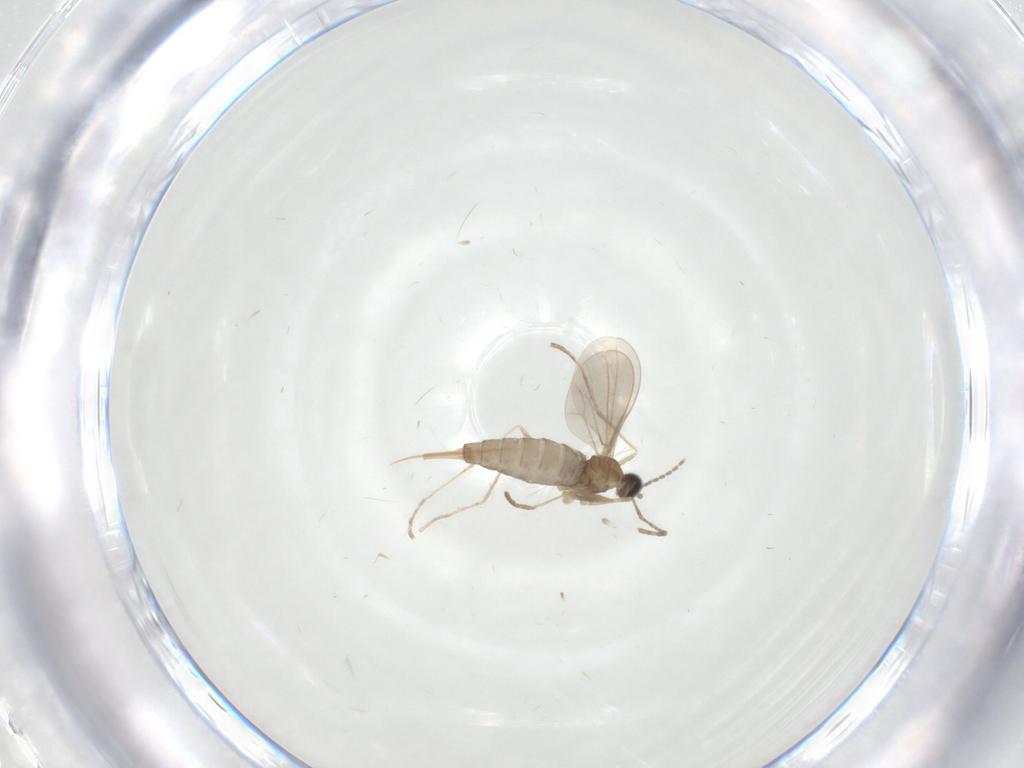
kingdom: Animalia
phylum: Arthropoda
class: Insecta
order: Diptera
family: Cecidomyiidae
